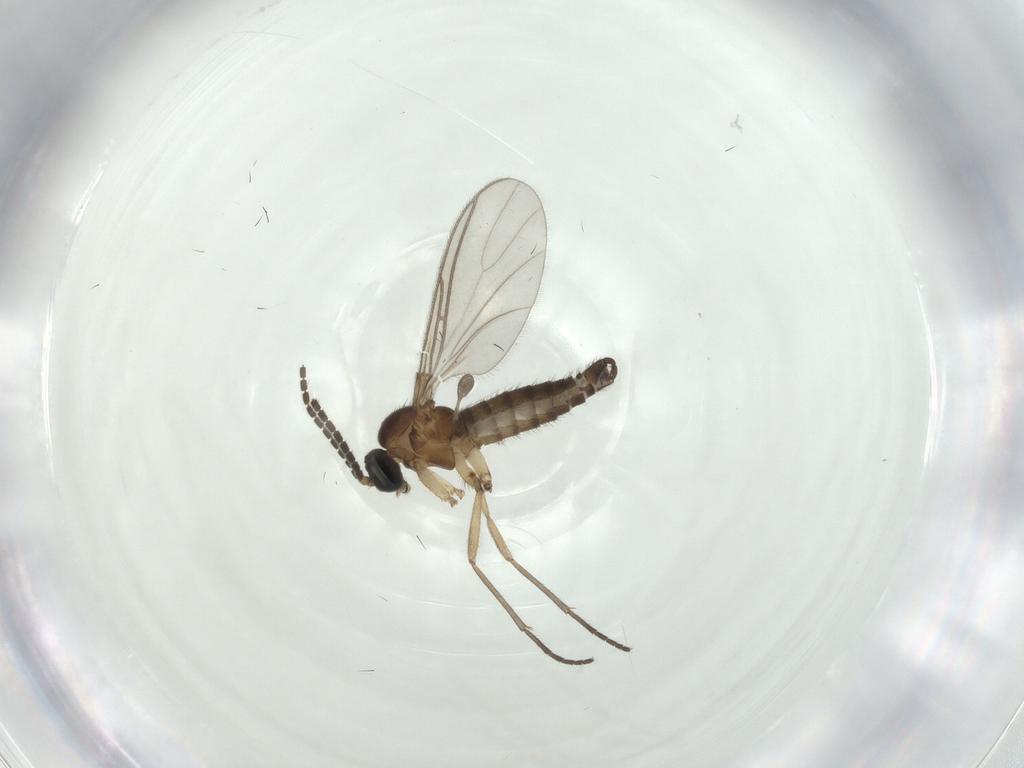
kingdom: Animalia
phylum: Arthropoda
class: Insecta
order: Diptera
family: Sciaridae
